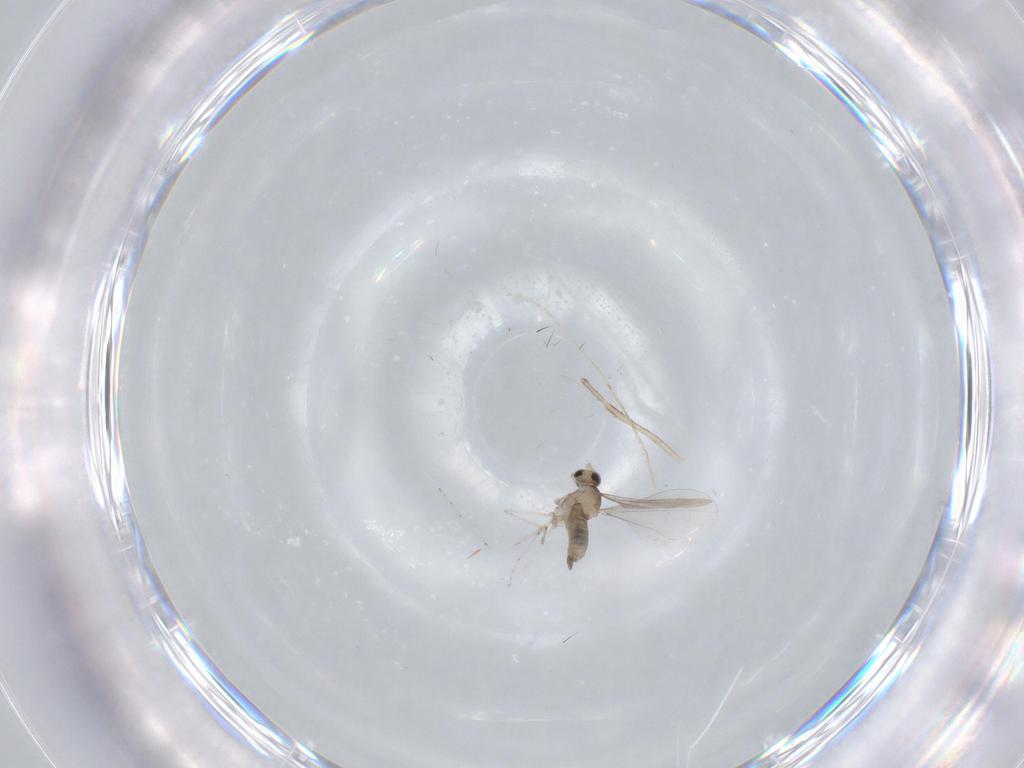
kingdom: Animalia
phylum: Arthropoda
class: Insecta
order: Diptera
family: Cecidomyiidae
